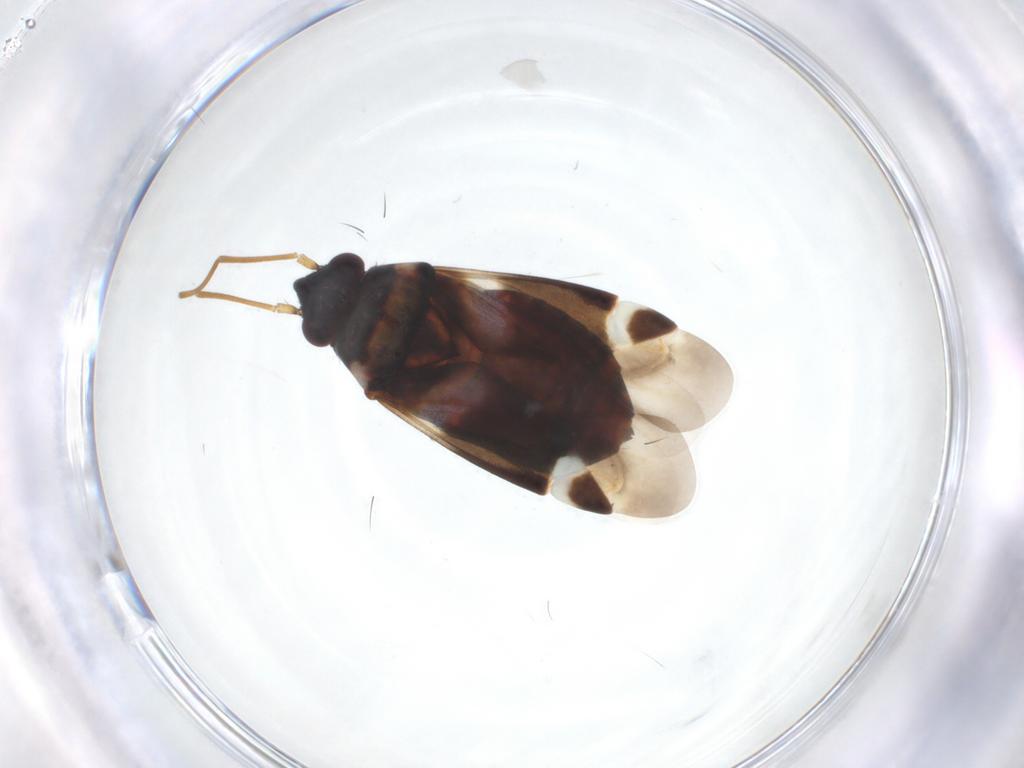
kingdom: Animalia
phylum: Arthropoda
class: Insecta
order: Hemiptera
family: Miridae
